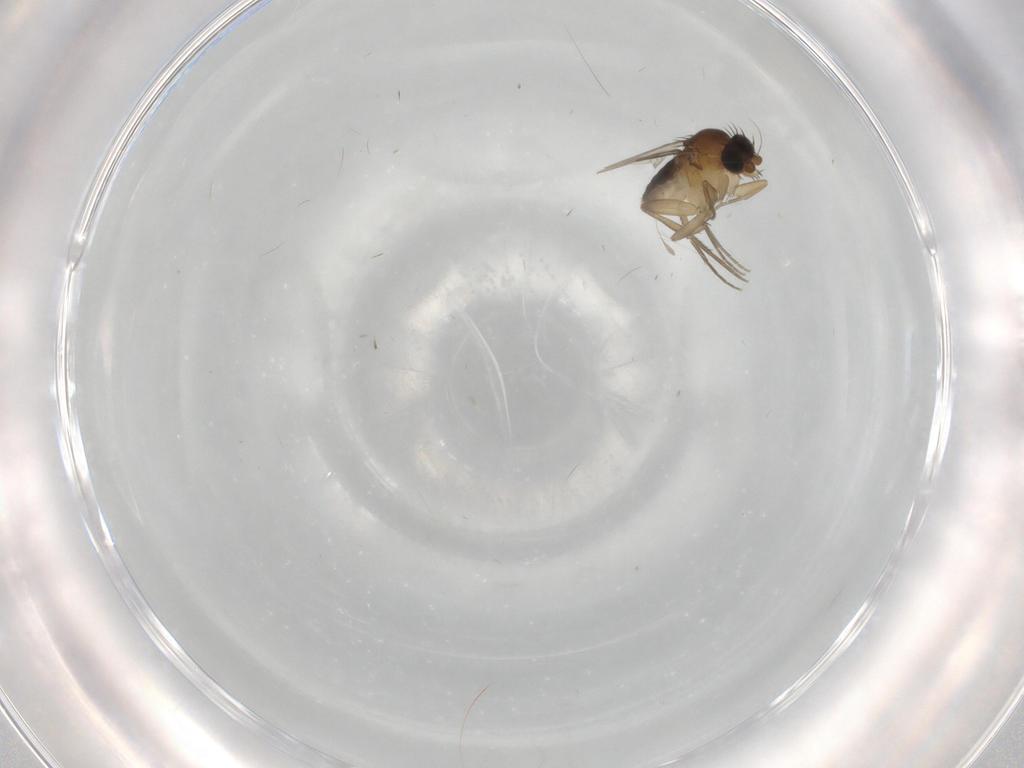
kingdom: Animalia
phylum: Arthropoda
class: Insecta
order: Diptera
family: Phoridae
